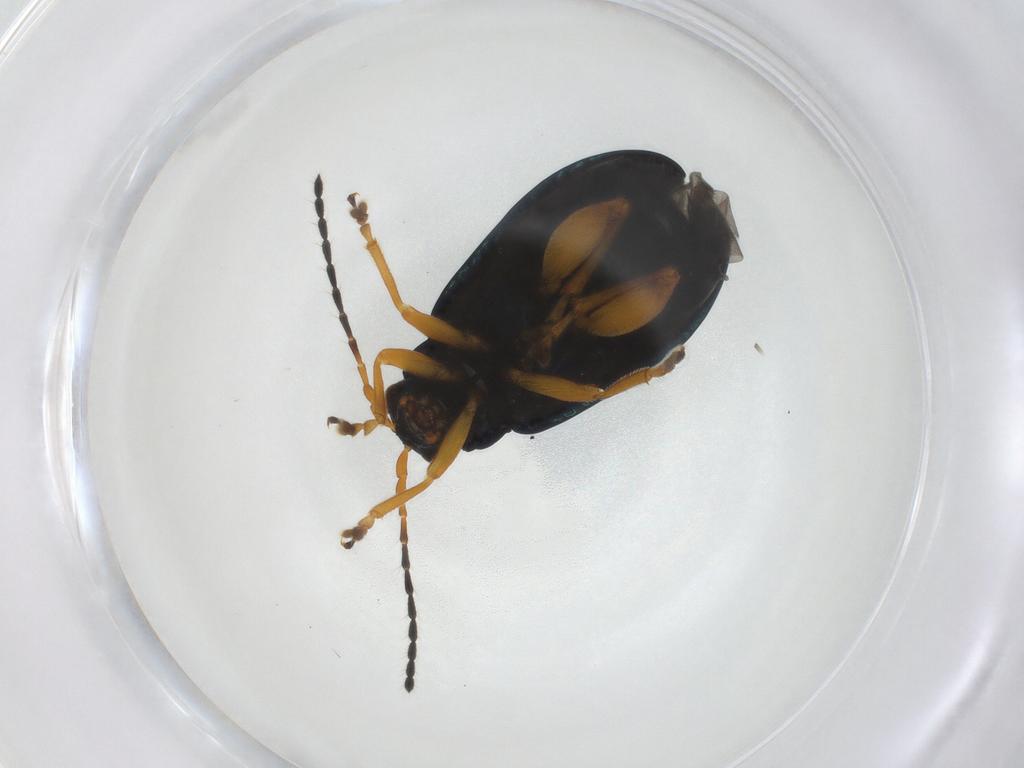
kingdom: Animalia
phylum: Arthropoda
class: Insecta
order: Coleoptera
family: Chrysomelidae
